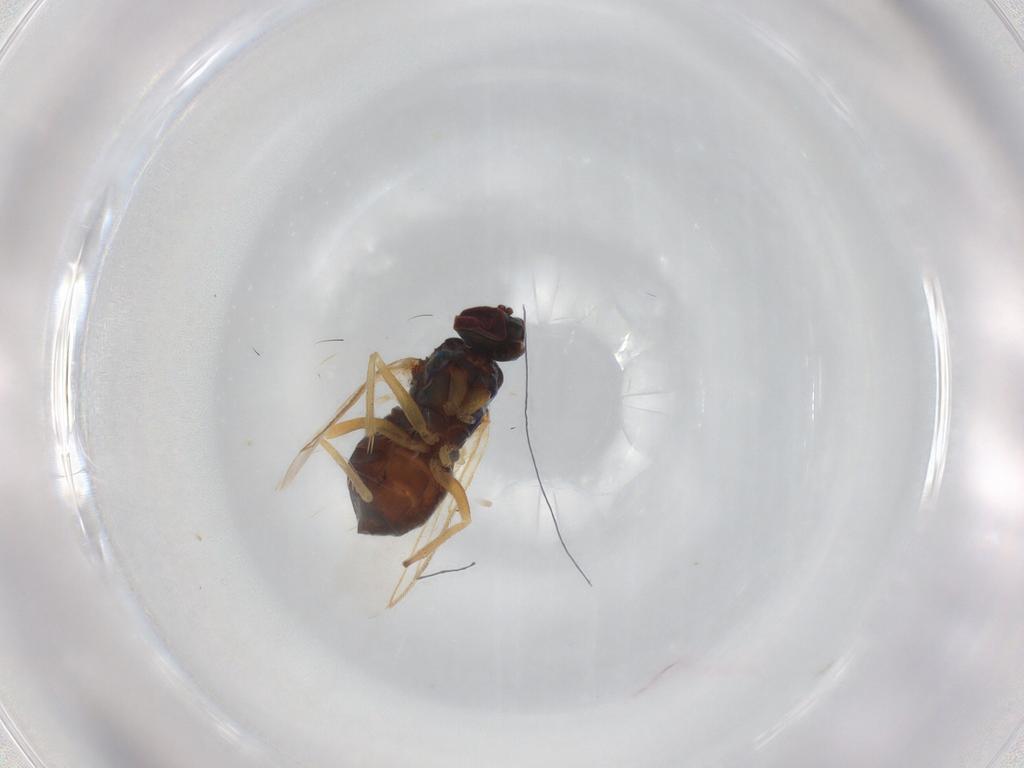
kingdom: Animalia
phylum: Arthropoda
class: Insecta
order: Diptera
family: Dolichopodidae
